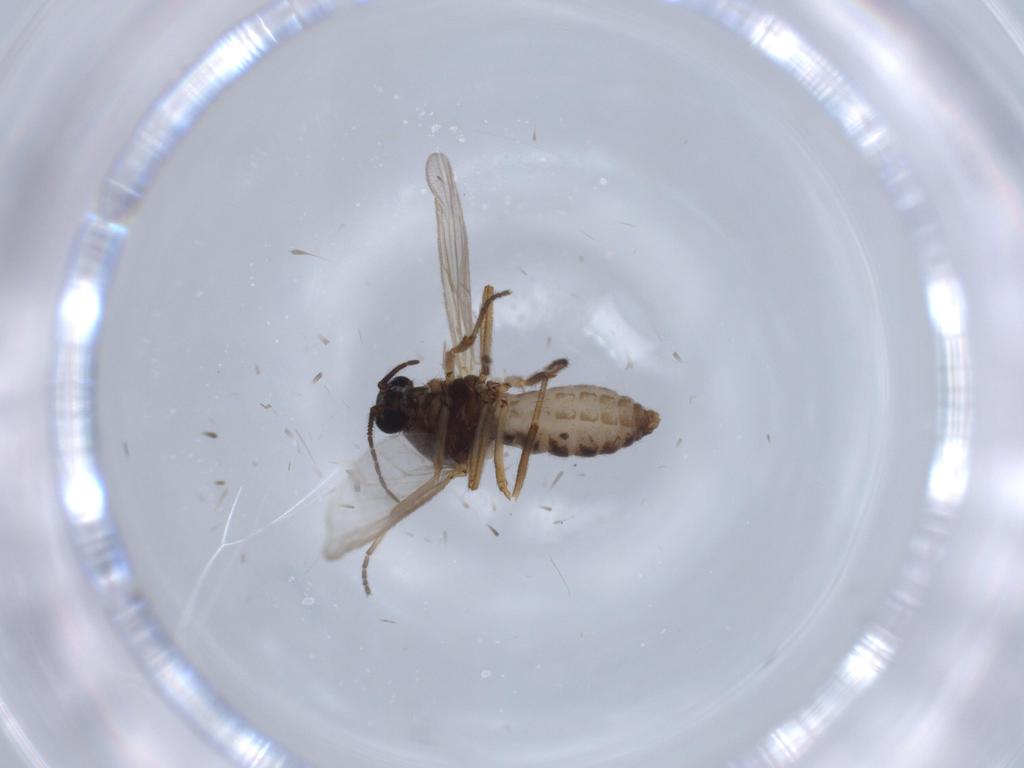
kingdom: Animalia
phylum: Arthropoda
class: Insecta
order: Diptera
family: Ceratopogonidae
